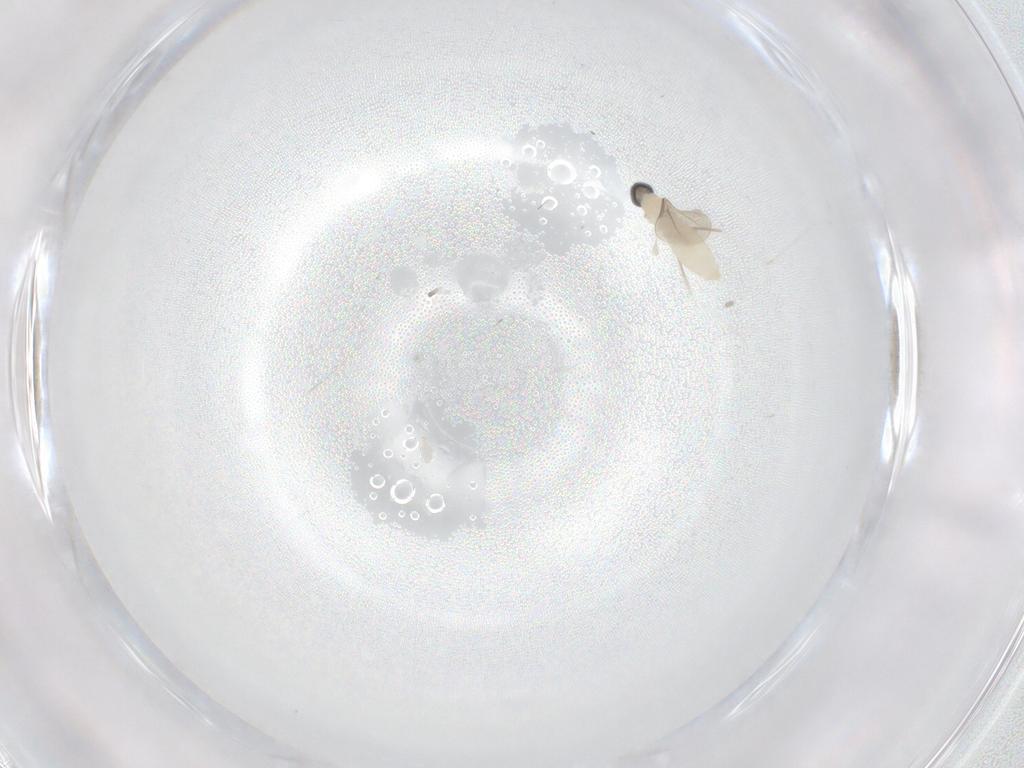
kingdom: Animalia
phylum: Arthropoda
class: Insecta
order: Diptera
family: Cecidomyiidae
